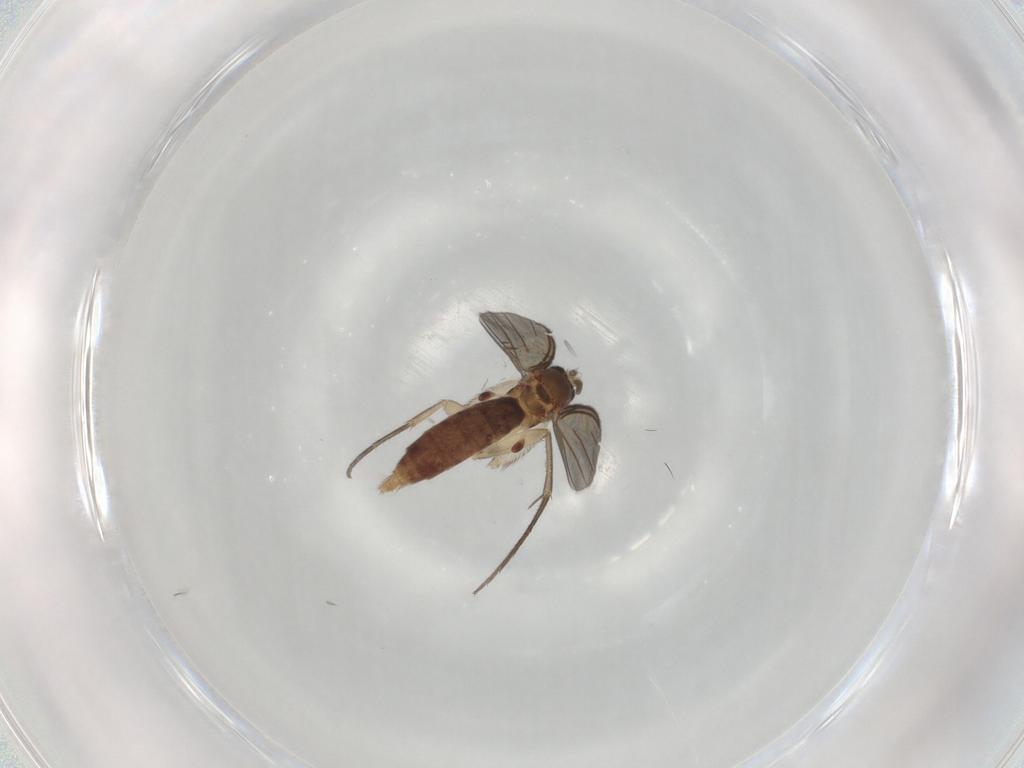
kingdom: Animalia
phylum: Arthropoda
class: Insecta
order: Diptera
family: Mycetophilidae
